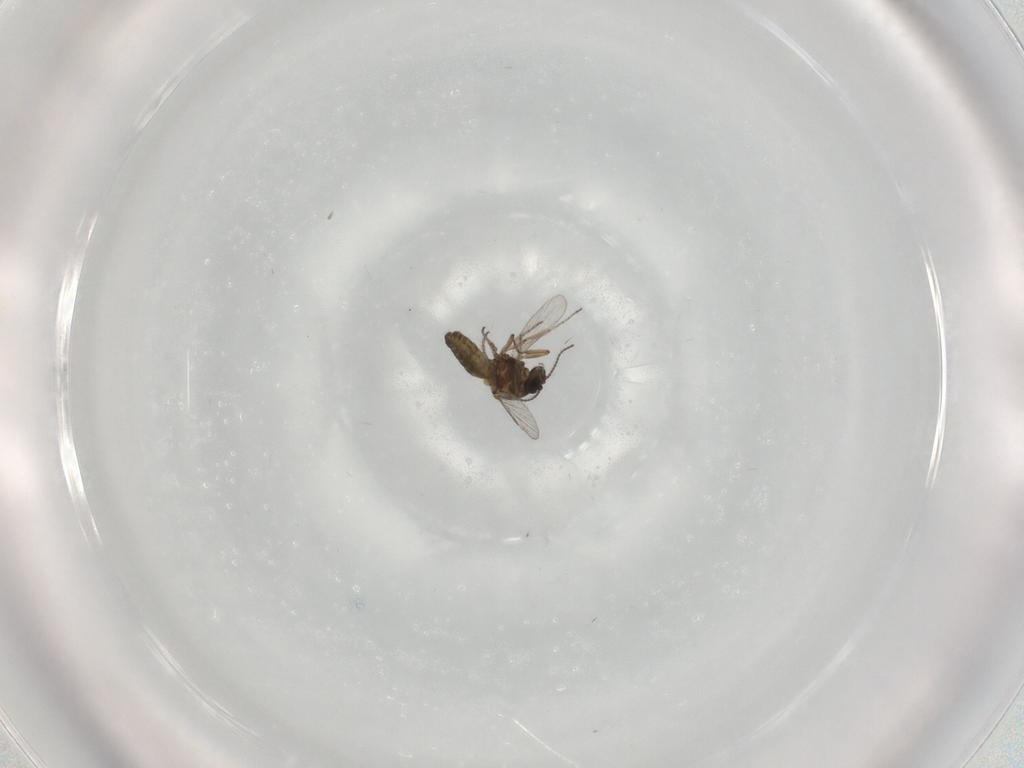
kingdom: Animalia
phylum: Arthropoda
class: Insecta
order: Diptera
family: Ceratopogonidae
